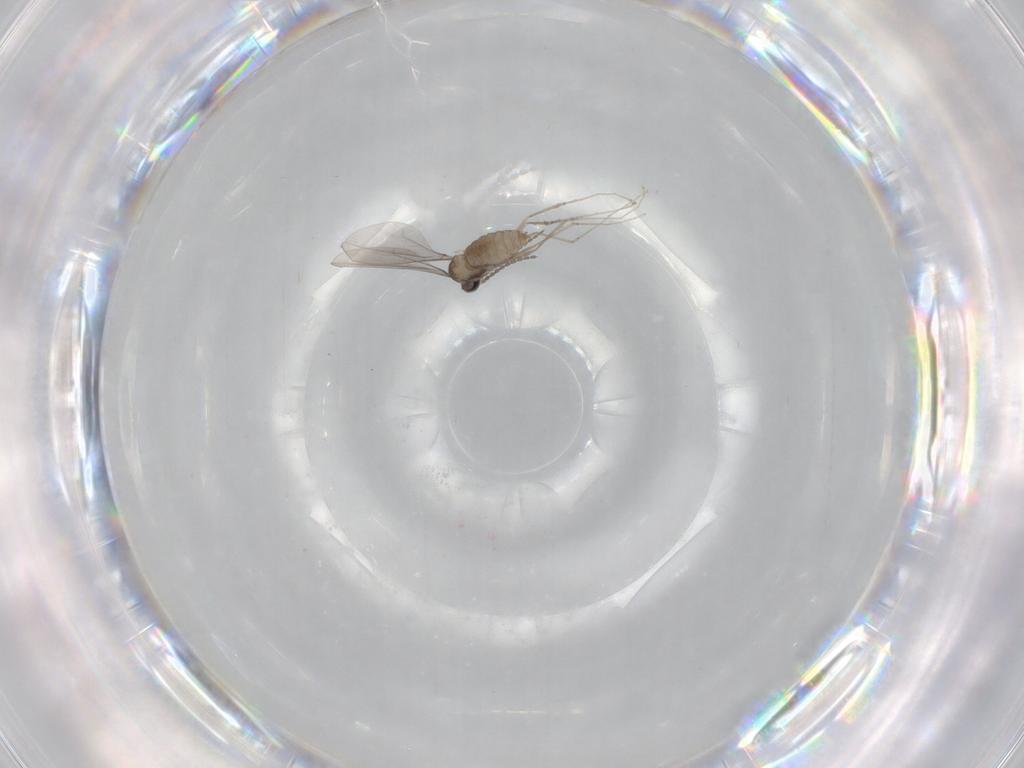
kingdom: Animalia
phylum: Arthropoda
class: Insecta
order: Diptera
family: Cecidomyiidae
